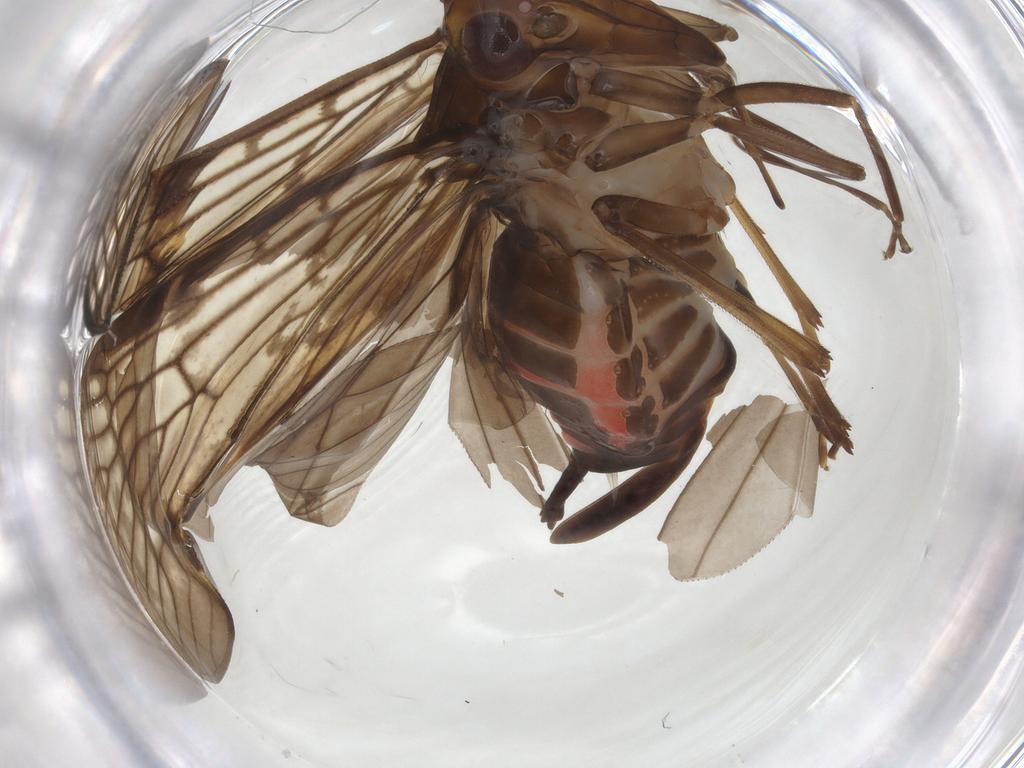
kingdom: Animalia
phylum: Arthropoda
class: Insecta
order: Hemiptera
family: Cixiidae
